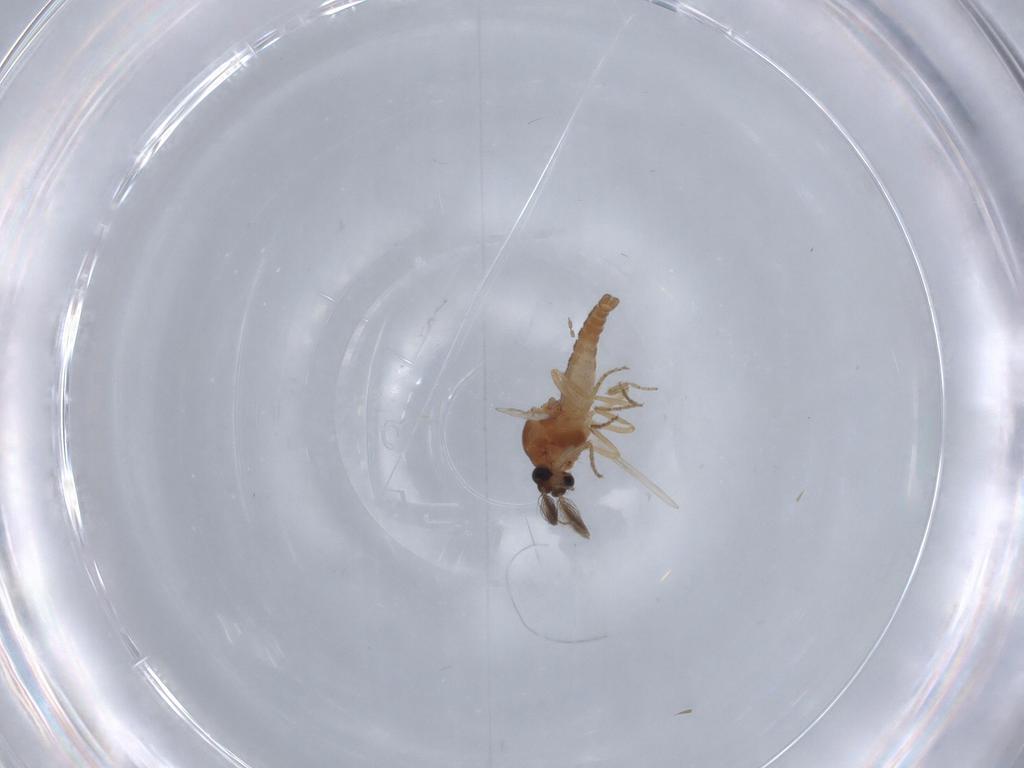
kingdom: Animalia
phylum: Arthropoda
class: Insecta
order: Diptera
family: Ceratopogonidae
